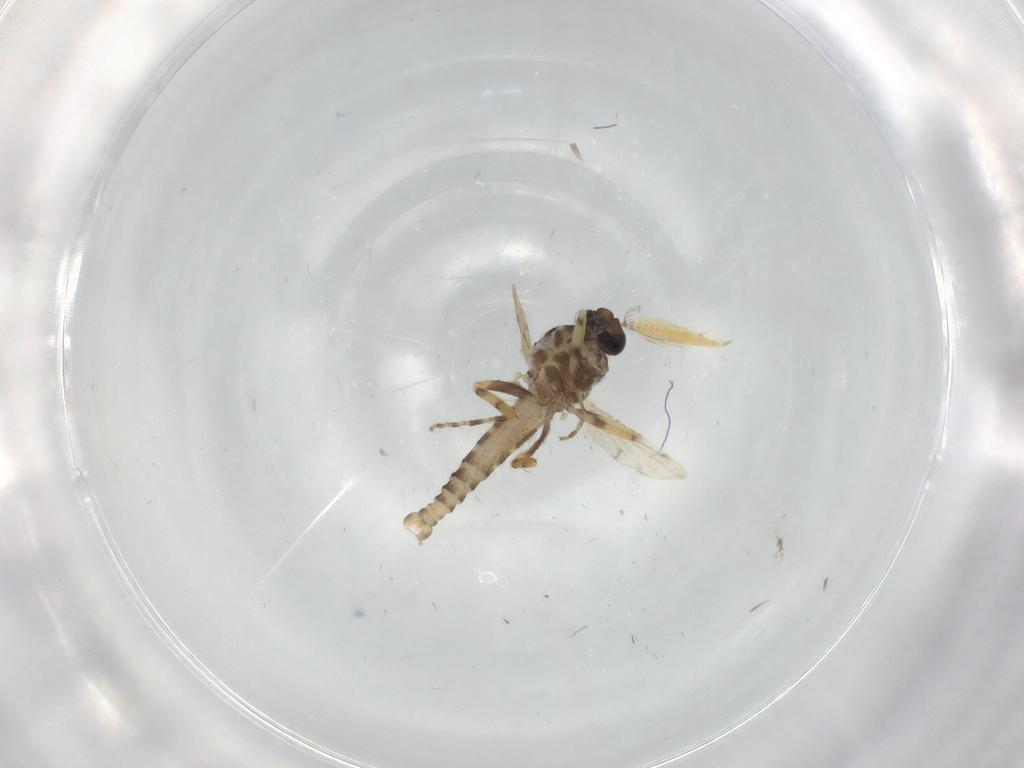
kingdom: Animalia
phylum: Arthropoda
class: Insecta
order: Diptera
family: Ceratopogonidae
